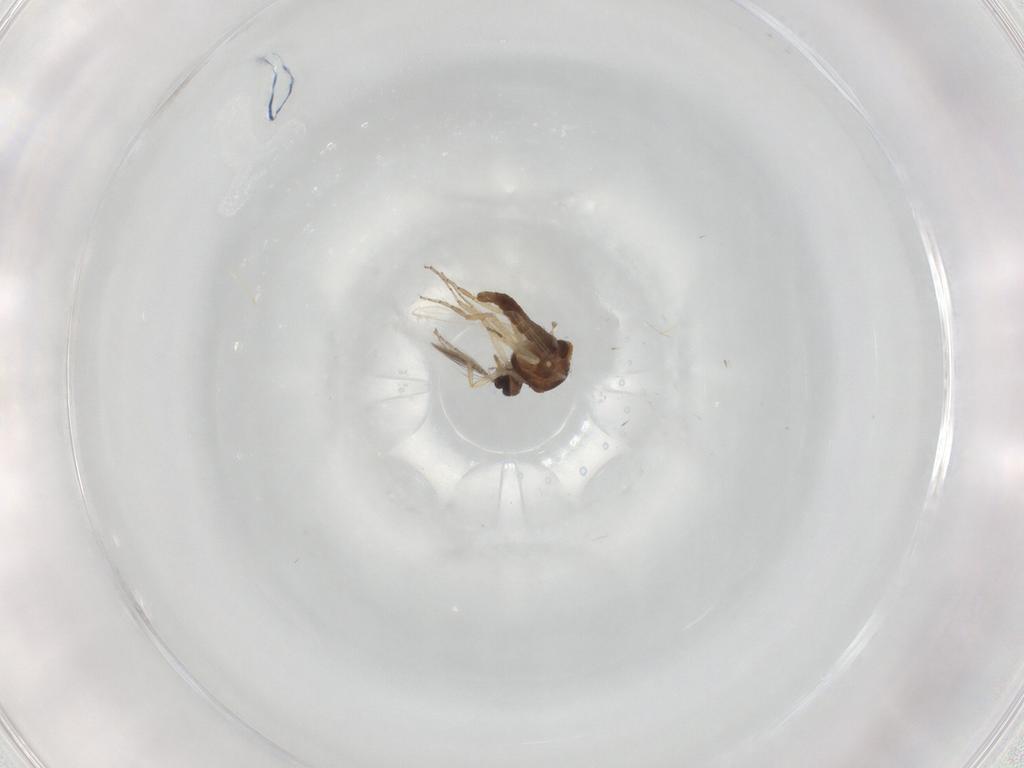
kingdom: Animalia
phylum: Arthropoda
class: Insecta
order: Diptera
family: Ceratopogonidae
